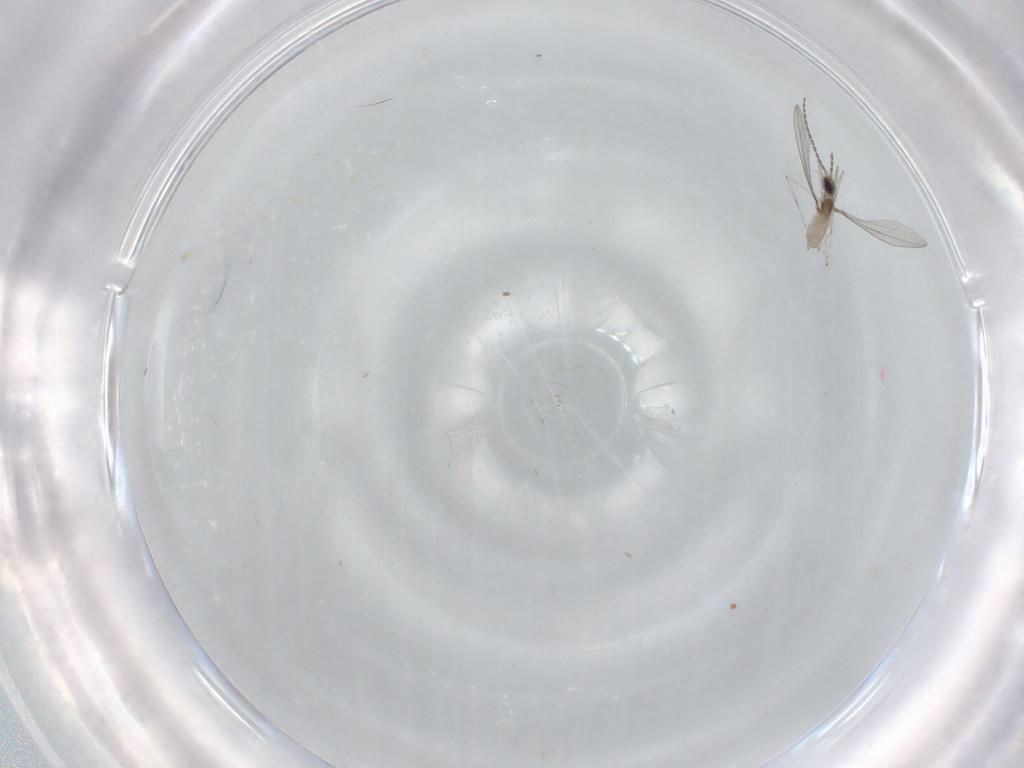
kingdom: Animalia
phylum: Arthropoda
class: Insecta
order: Diptera
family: Cecidomyiidae
